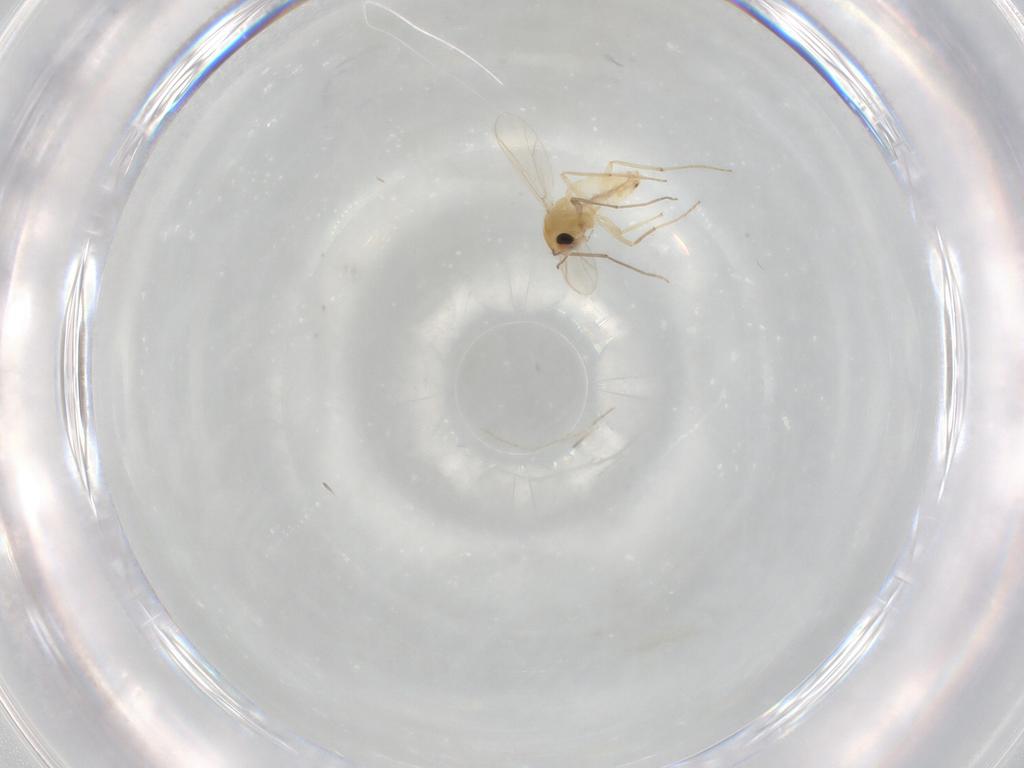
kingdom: Animalia
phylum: Arthropoda
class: Insecta
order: Diptera
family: Chironomidae
